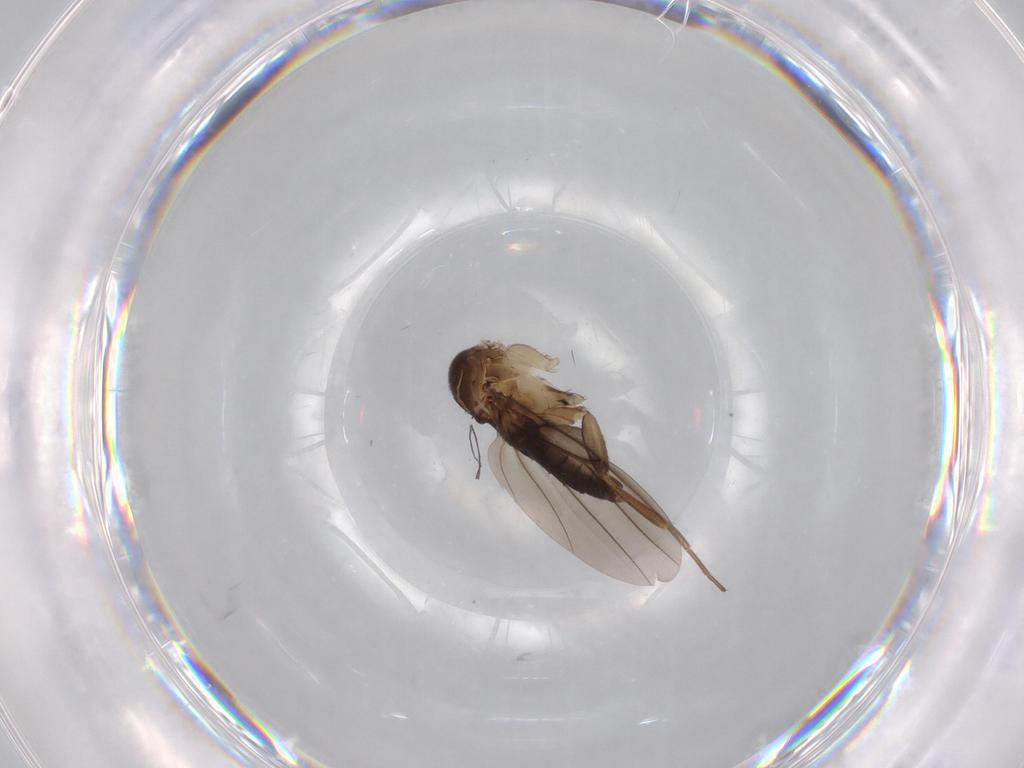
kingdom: Animalia
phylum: Arthropoda
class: Insecta
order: Diptera
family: Phoridae
